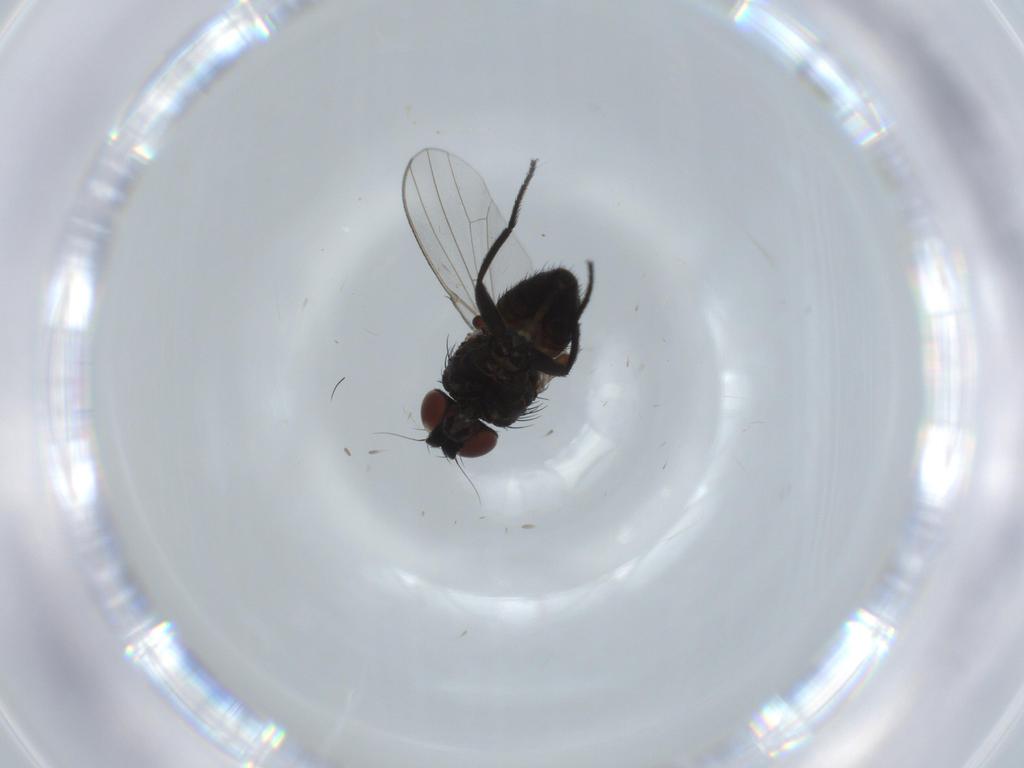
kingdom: Animalia
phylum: Arthropoda
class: Insecta
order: Diptera
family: Milichiidae
